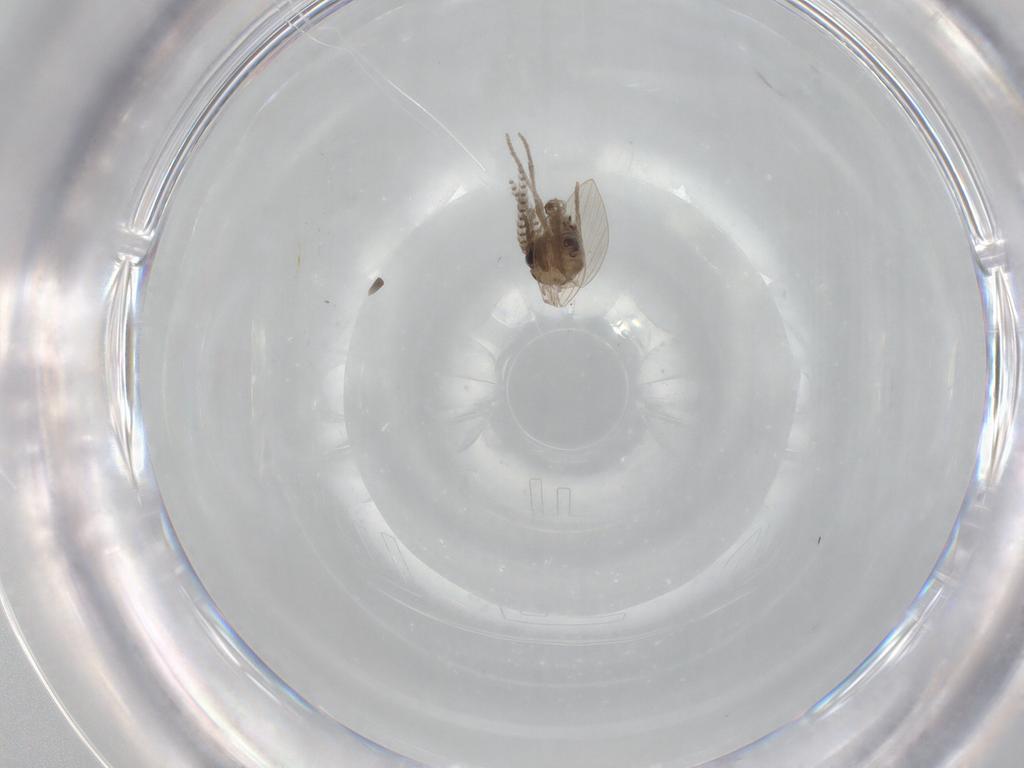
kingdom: Animalia
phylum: Arthropoda
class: Insecta
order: Diptera
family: Chironomidae
